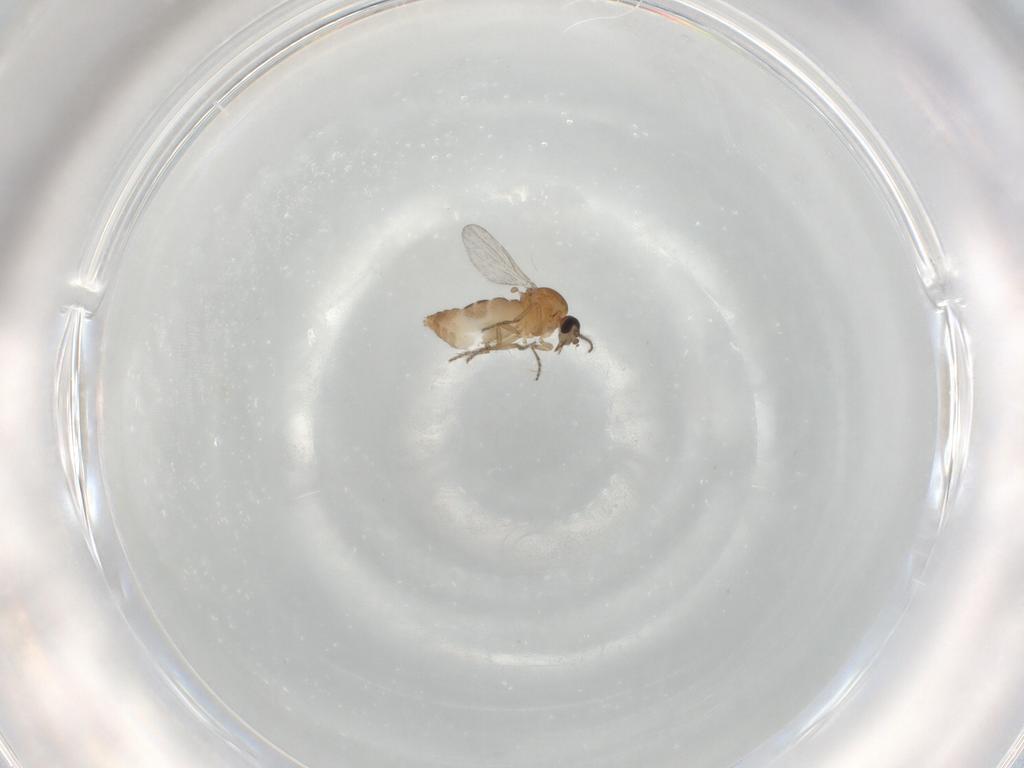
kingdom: Animalia
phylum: Arthropoda
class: Insecta
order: Diptera
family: Ceratopogonidae
